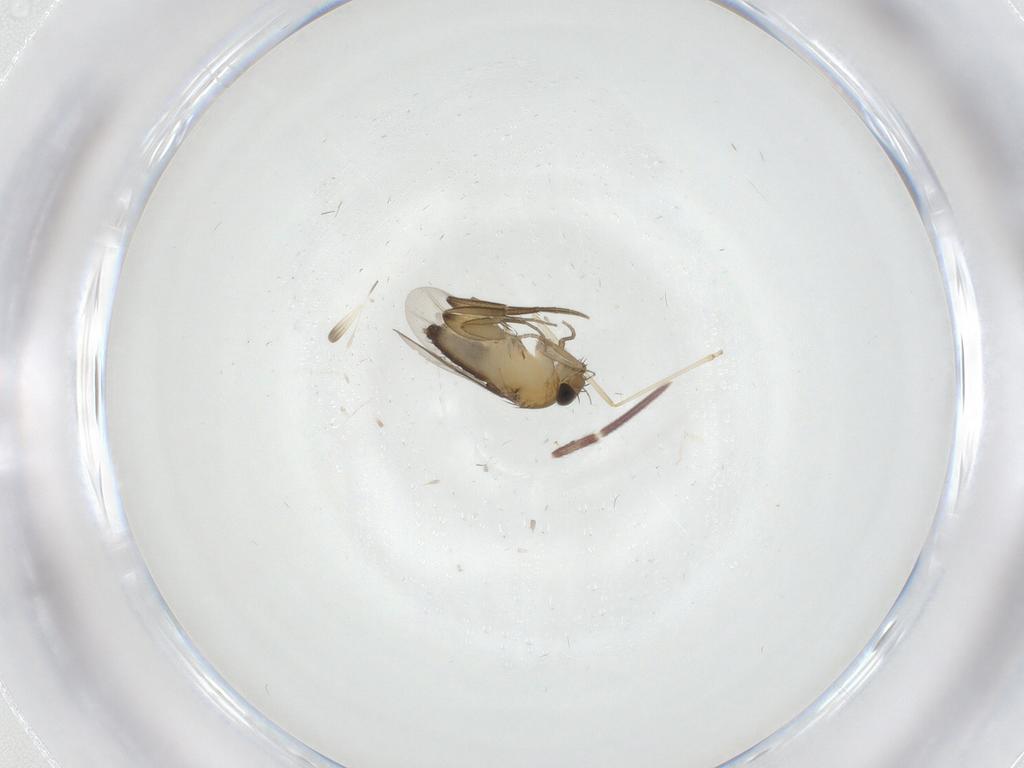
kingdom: Animalia
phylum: Arthropoda
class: Insecta
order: Diptera
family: Phoridae
